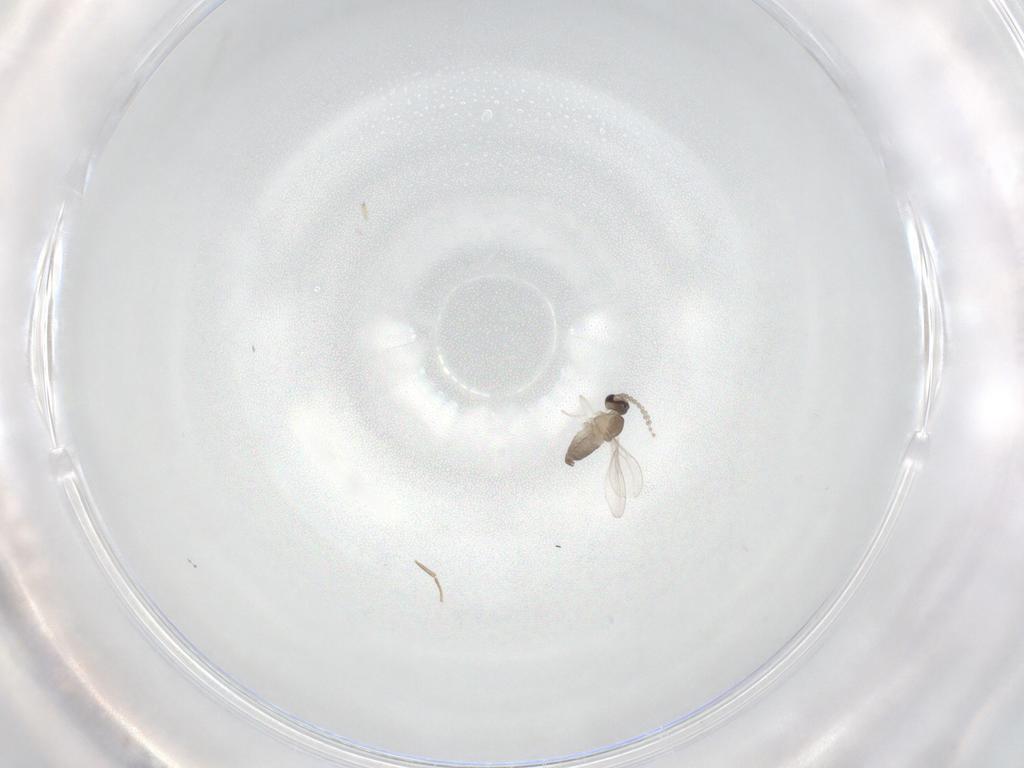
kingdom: Animalia
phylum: Arthropoda
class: Insecta
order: Diptera
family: Cecidomyiidae
